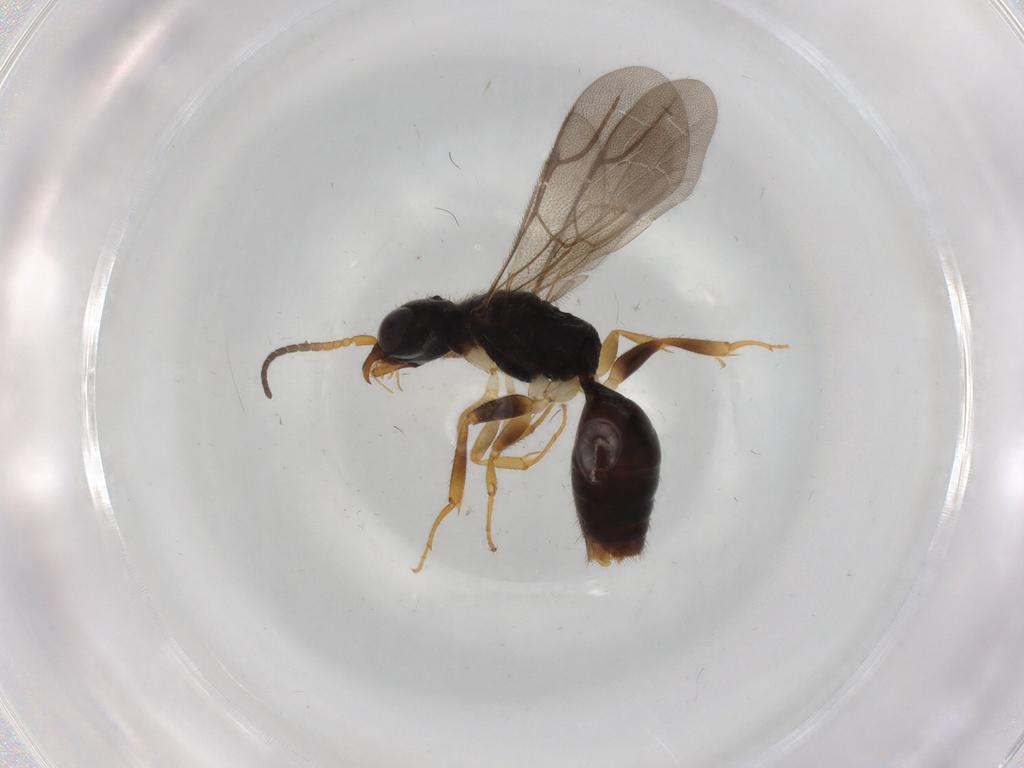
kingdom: Animalia
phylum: Arthropoda
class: Insecta
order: Hymenoptera
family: Bethylidae
